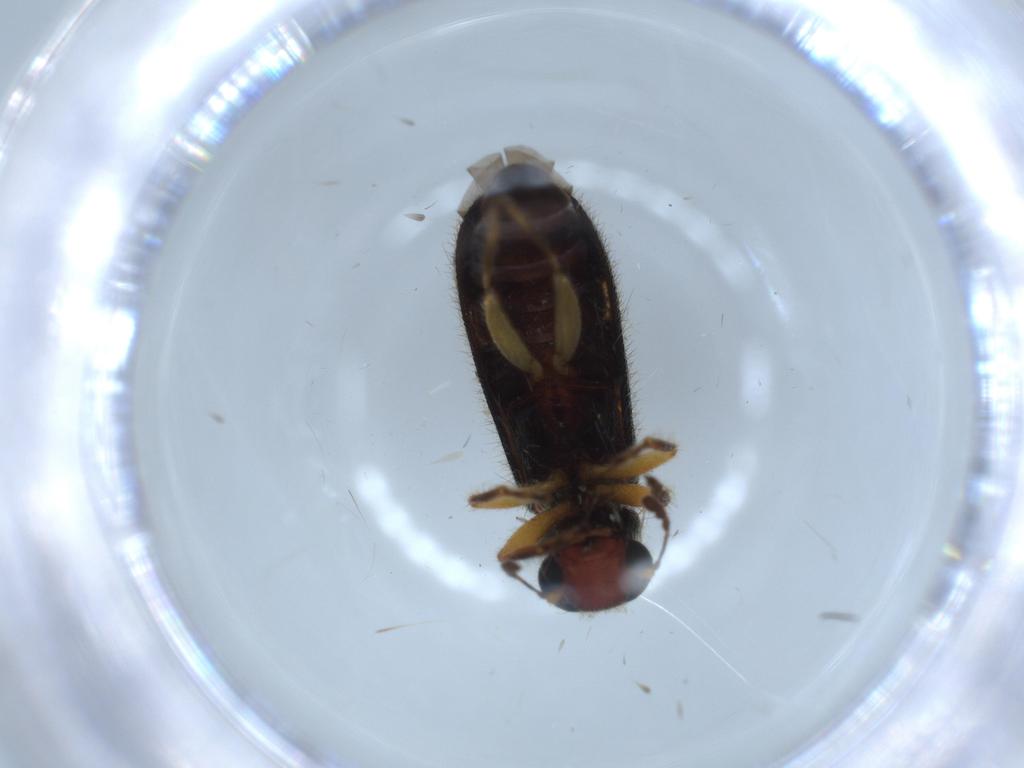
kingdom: Animalia
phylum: Arthropoda
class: Insecta
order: Coleoptera
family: Cleridae
